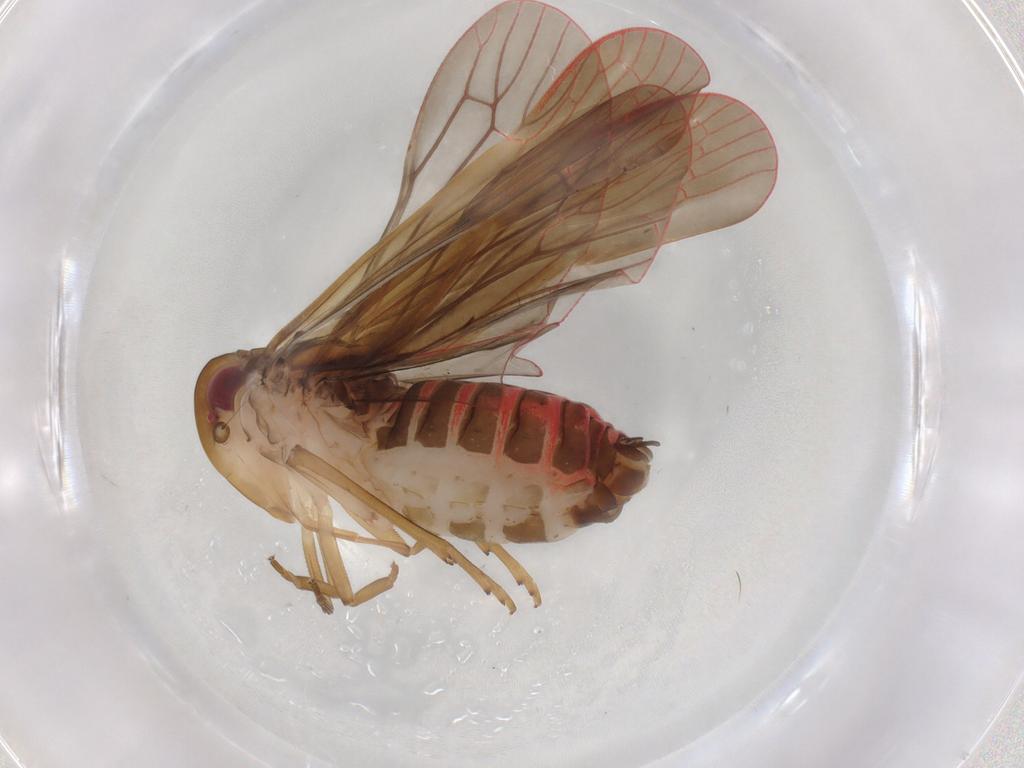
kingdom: Animalia
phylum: Arthropoda
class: Insecta
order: Hemiptera
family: Achilidae
